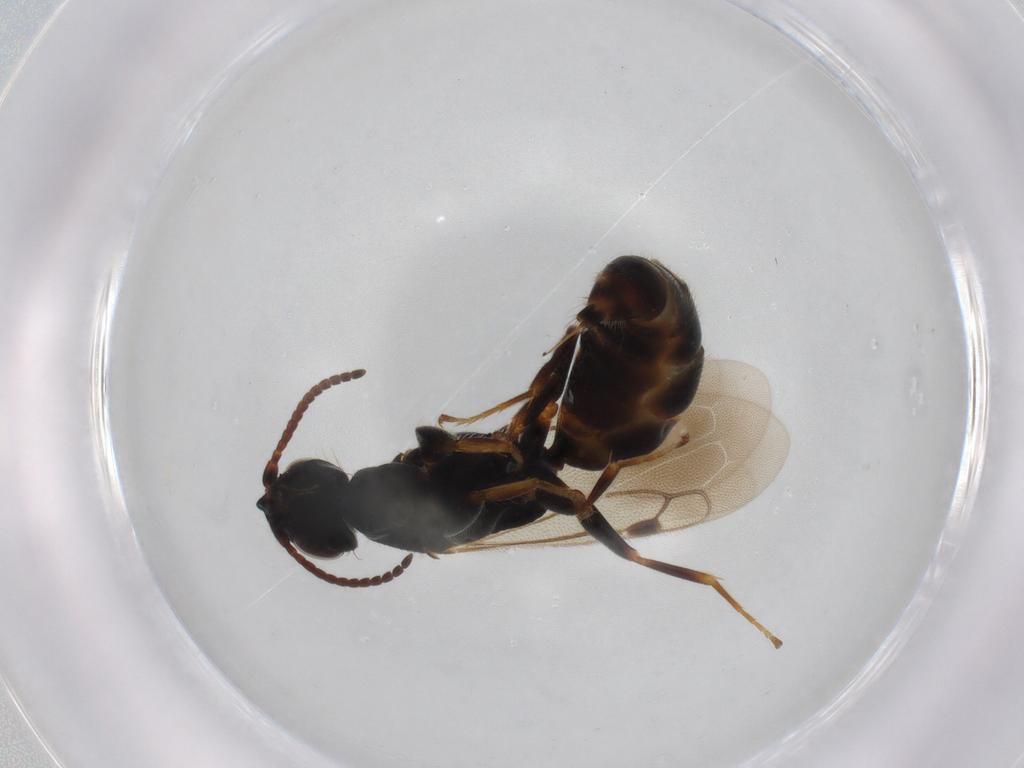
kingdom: Animalia
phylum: Arthropoda
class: Insecta
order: Hymenoptera
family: Bethylidae
